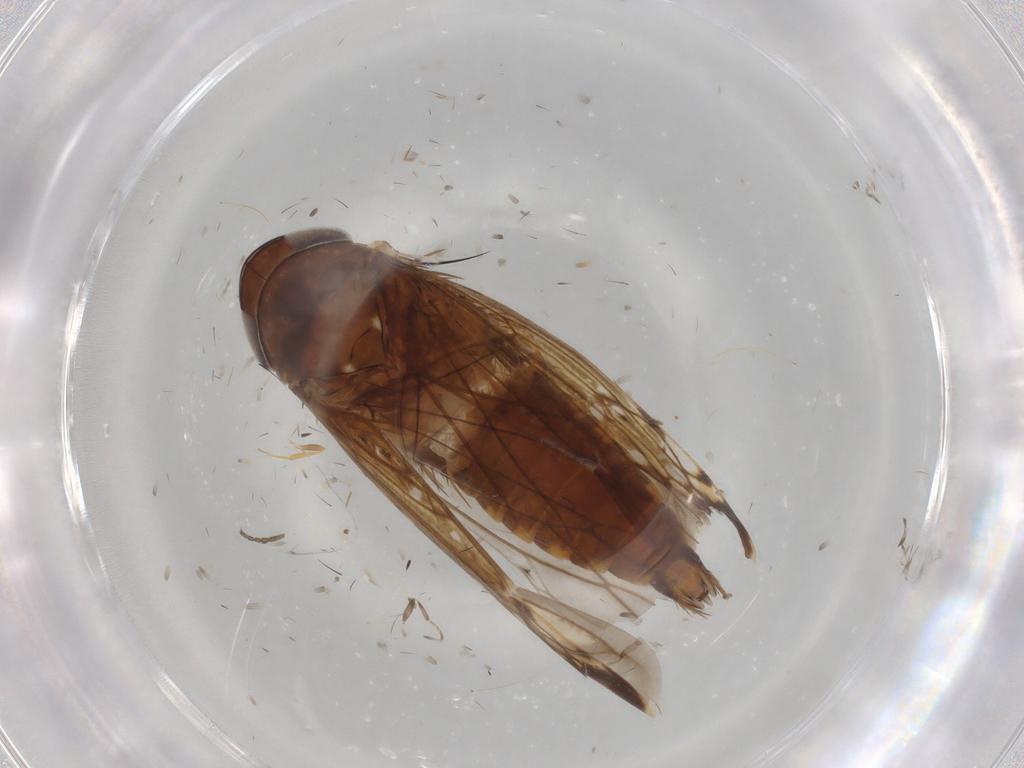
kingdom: Animalia
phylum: Arthropoda
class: Insecta
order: Hemiptera
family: Cicadellidae
